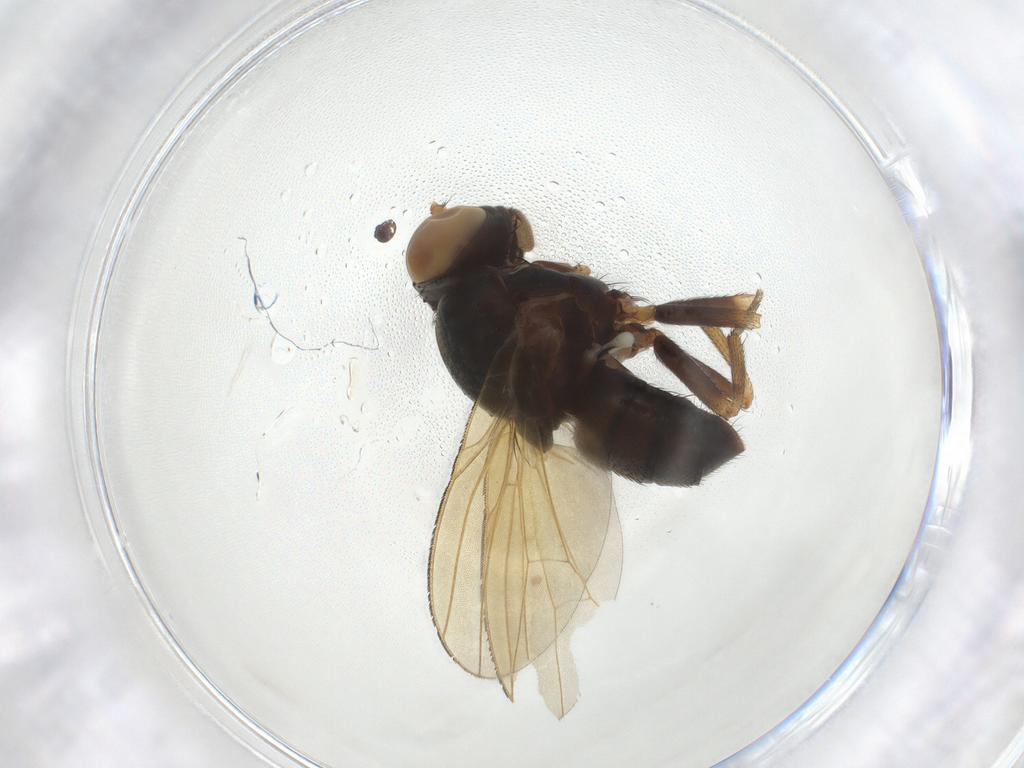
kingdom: Animalia
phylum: Arthropoda
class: Insecta
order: Diptera
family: Lauxaniidae
